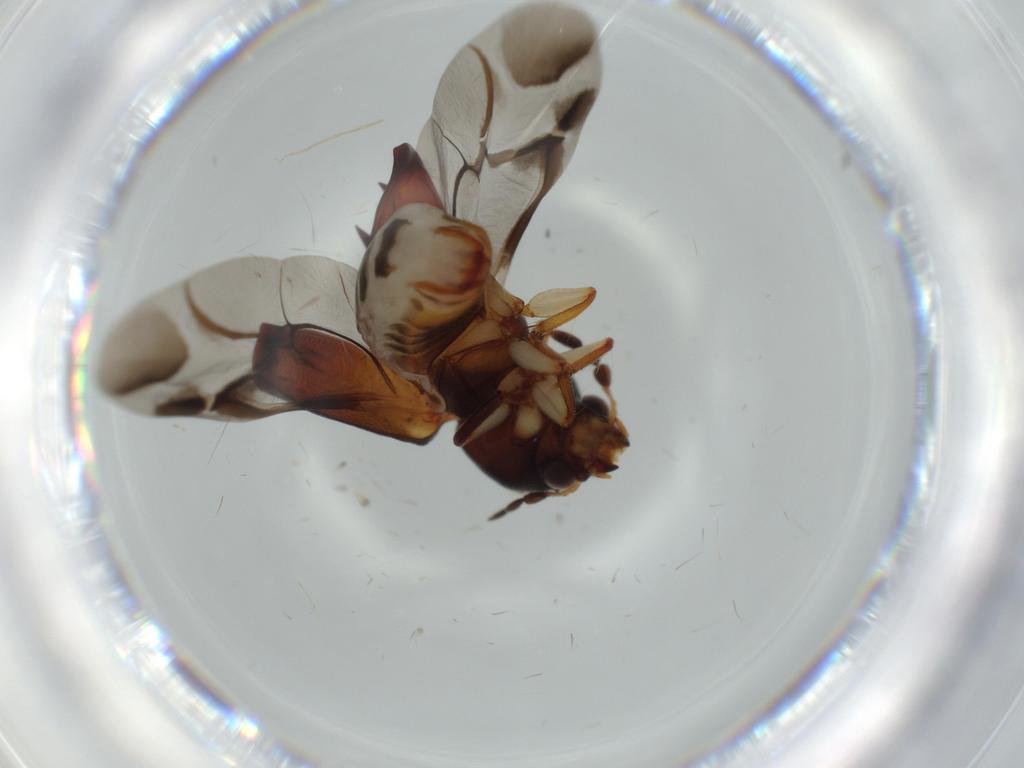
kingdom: Animalia
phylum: Arthropoda
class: Insecta
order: Coleoptera
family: Bostrichidae
